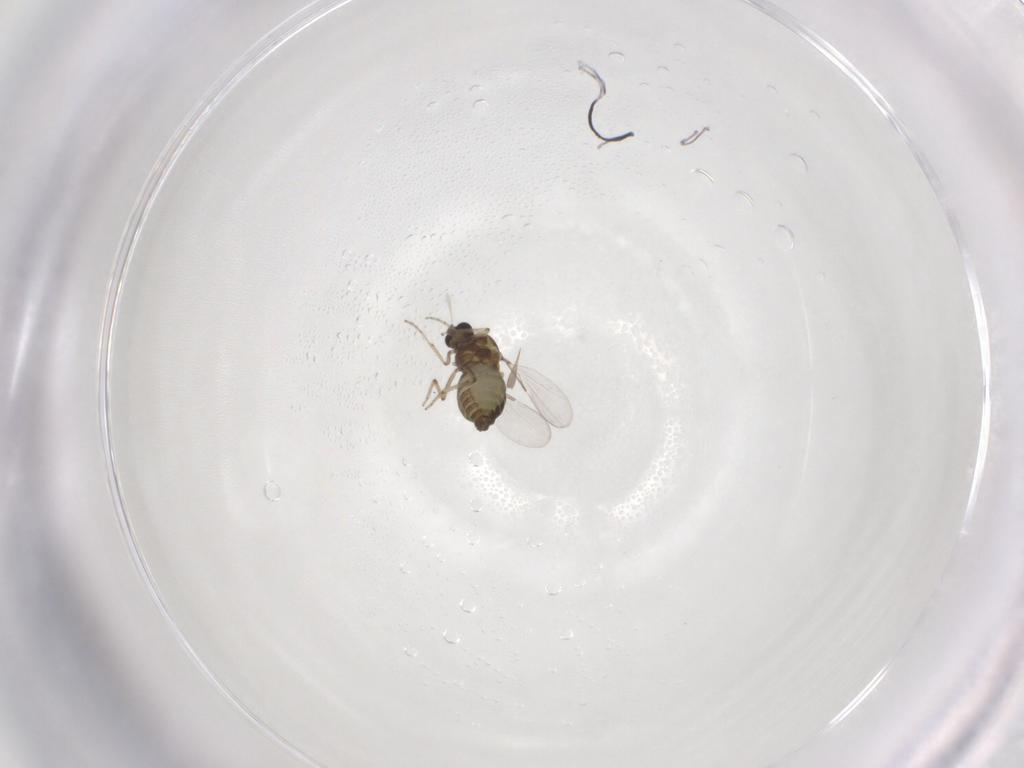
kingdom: Animalia
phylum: Arthropoda
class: Insecta
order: Diptera
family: Ceratopogonidae
